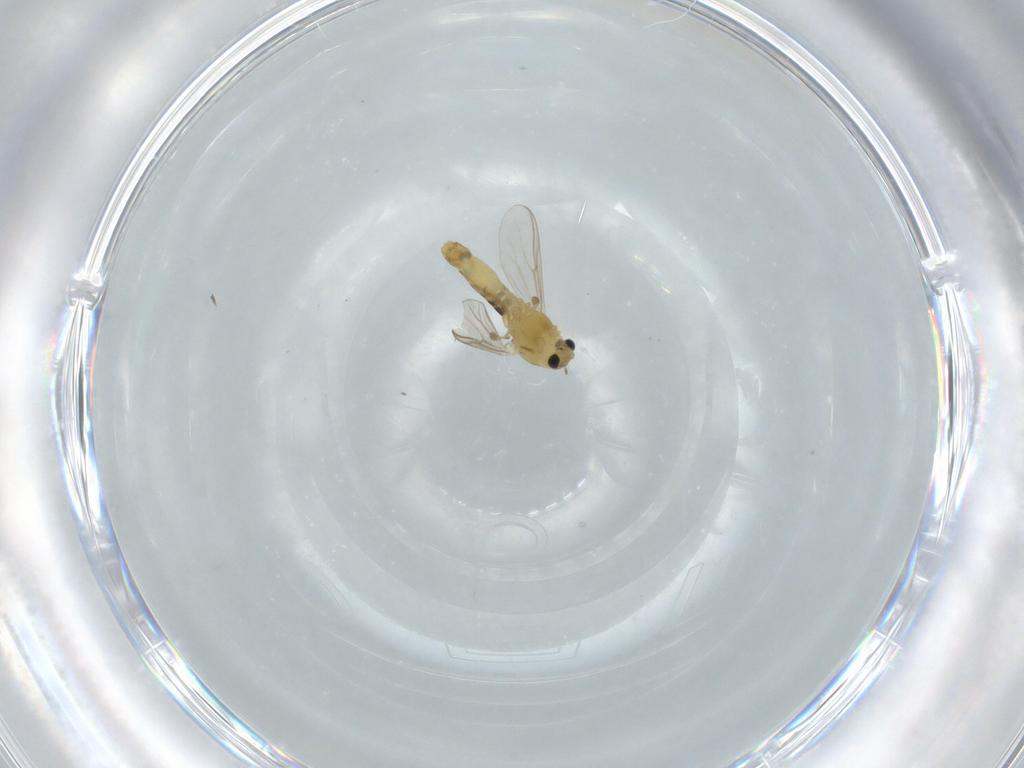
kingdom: Animalia
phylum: Arthropoda
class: Insecta
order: Diptera
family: Chironomidae
